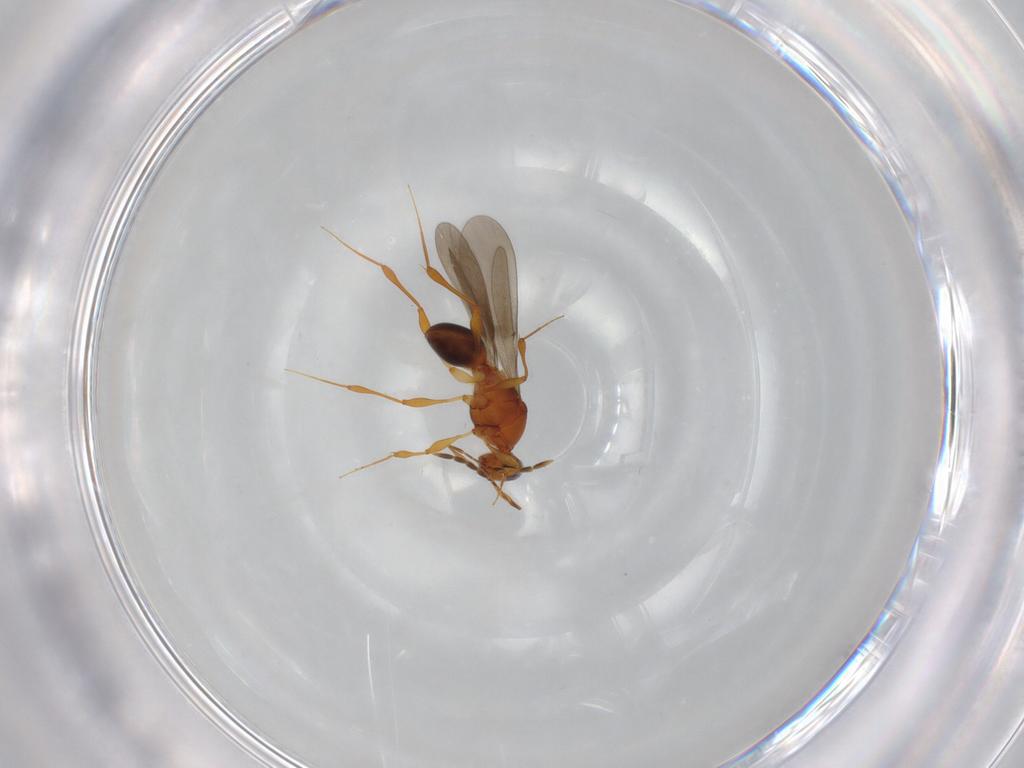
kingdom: Animalia
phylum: Arthropoda
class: Insecta
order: Hymenoptera
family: Platygastridae
